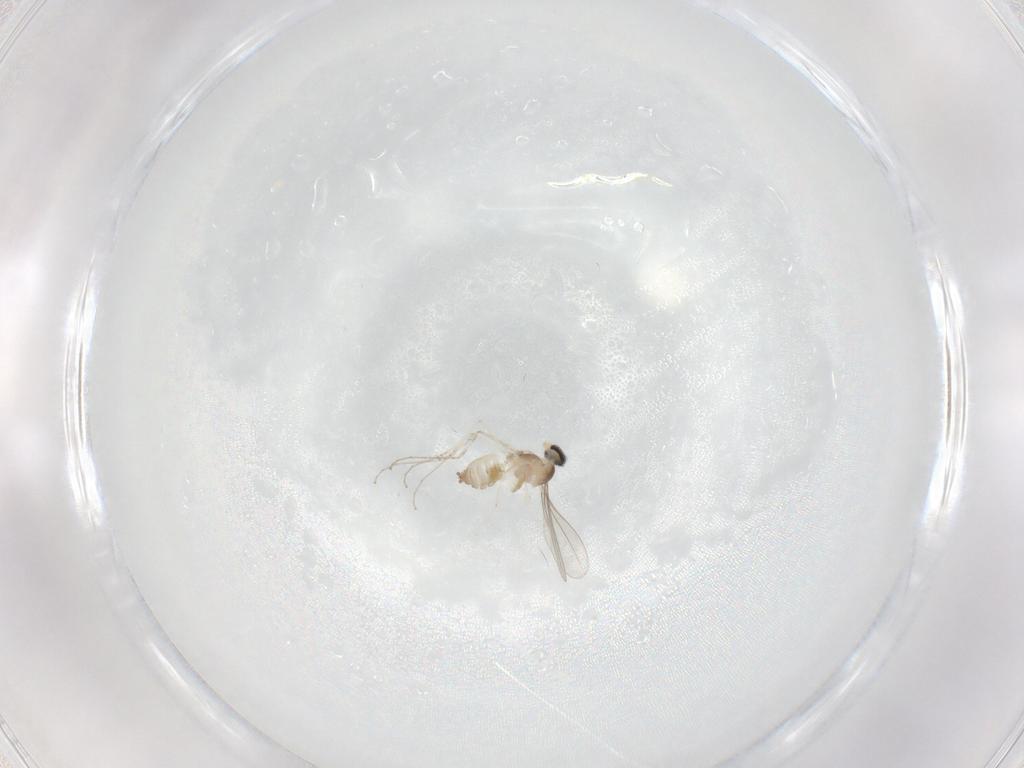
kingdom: Animalia
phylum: Arthropoda
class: Insecta
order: Diptera
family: Cecidomyiidae
